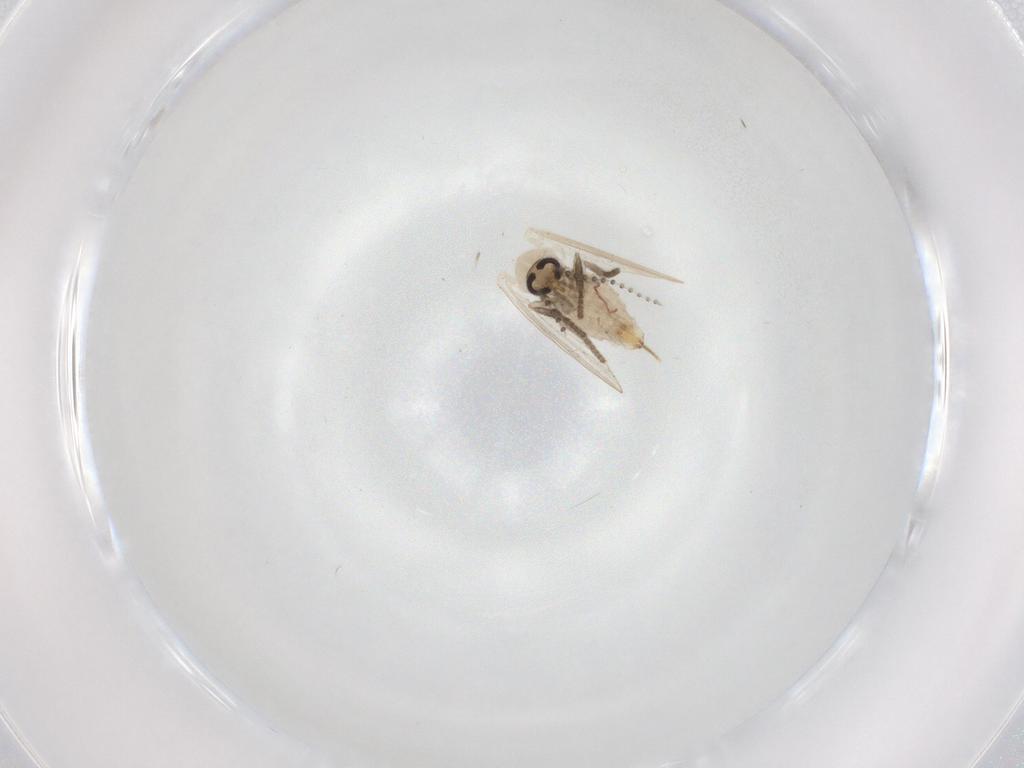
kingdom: Animalia
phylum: Arthropoda
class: Insecta
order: Diptera
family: Psychodidae
